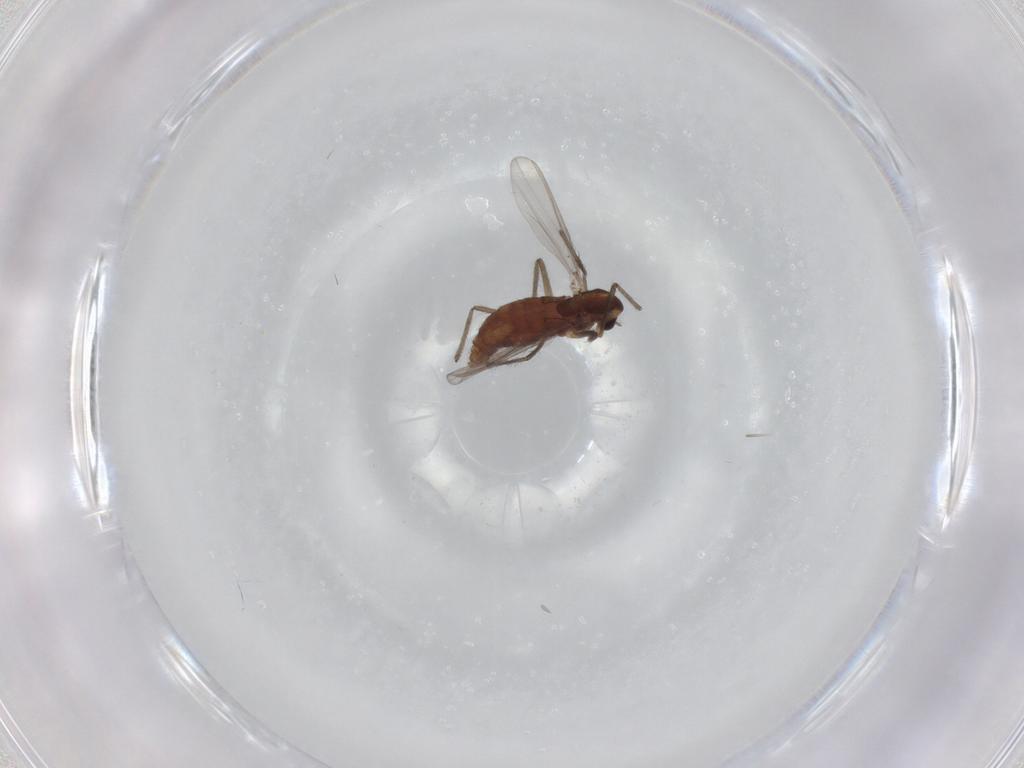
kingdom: Animalia
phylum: Arthropoda
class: Insecta
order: Diptera
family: Chironomidae
